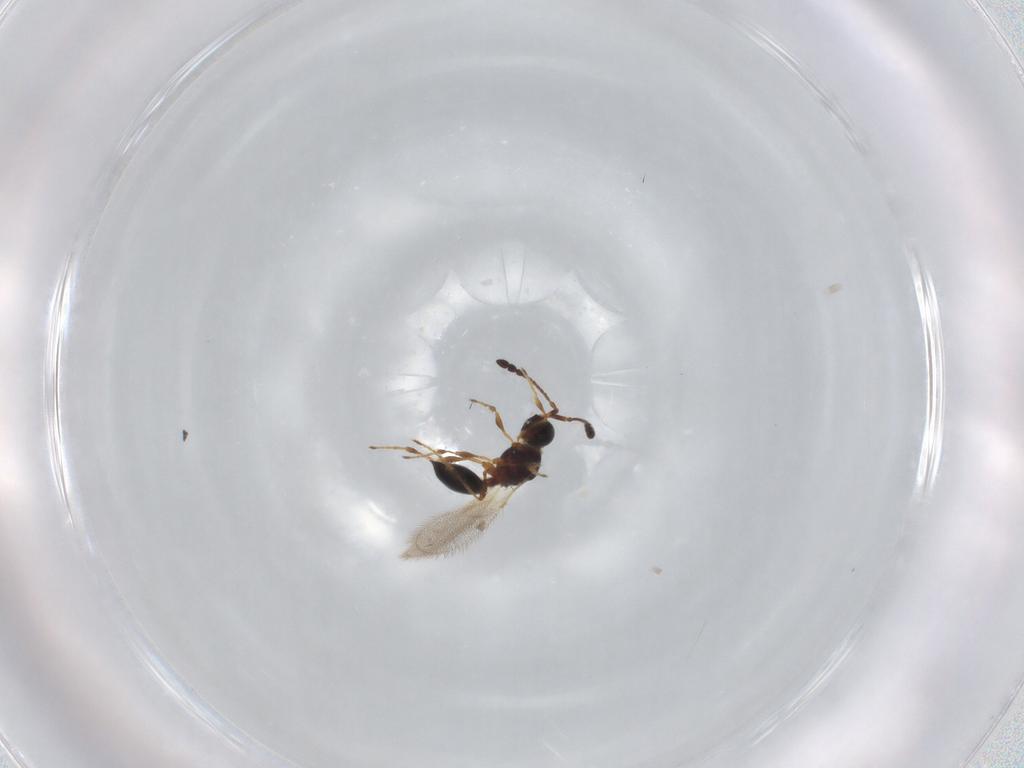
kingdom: Animalia
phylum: Arthropoda
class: Insecta
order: Hymenoptera
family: Diapriidae
